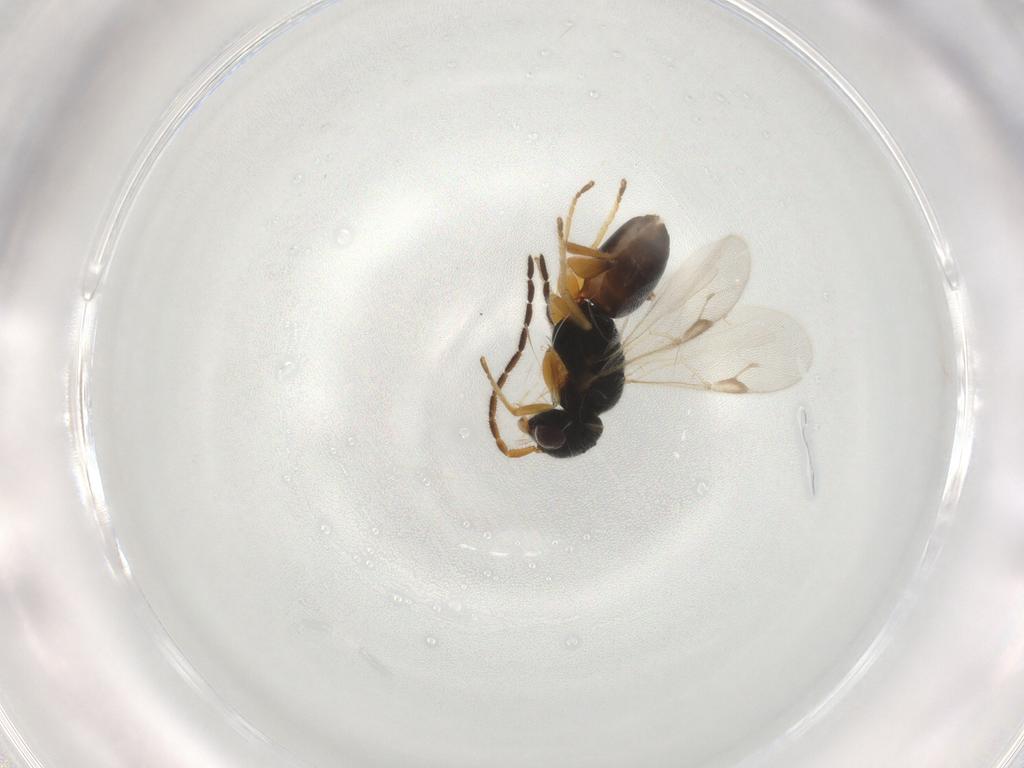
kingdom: Animalia
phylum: Arthropoda
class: Insecta
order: Hymenoptera
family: Dryinidae
